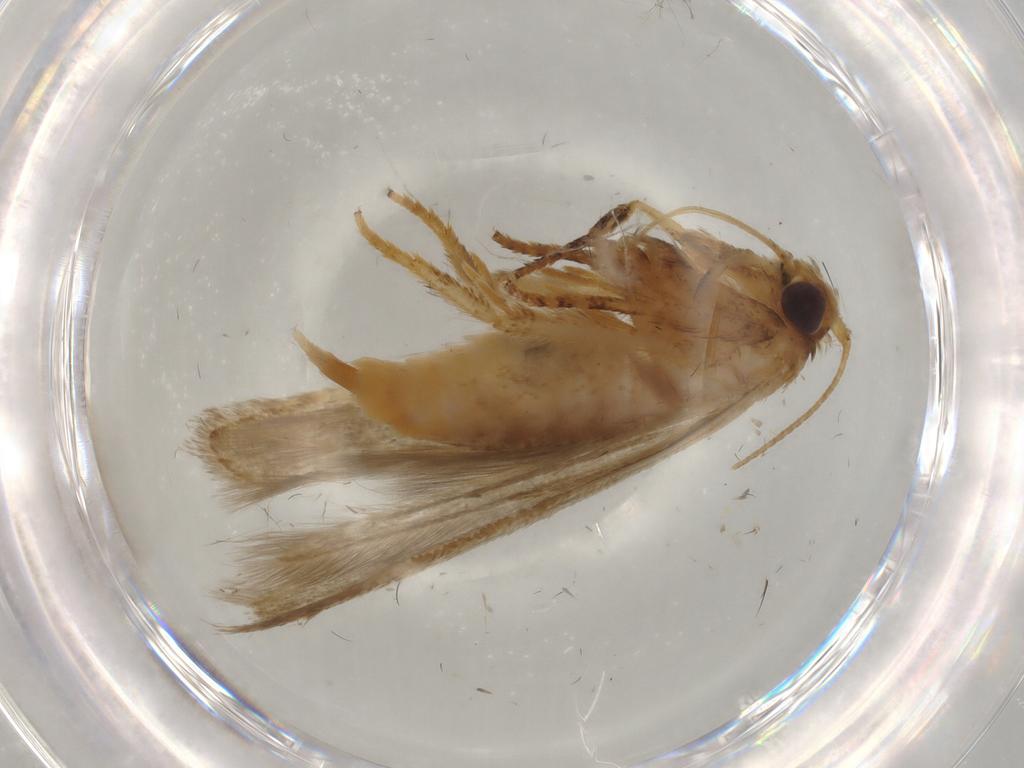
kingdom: Animalia
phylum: Arthropoda
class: Insecta
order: Lepidoptera
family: Blastobasidae
